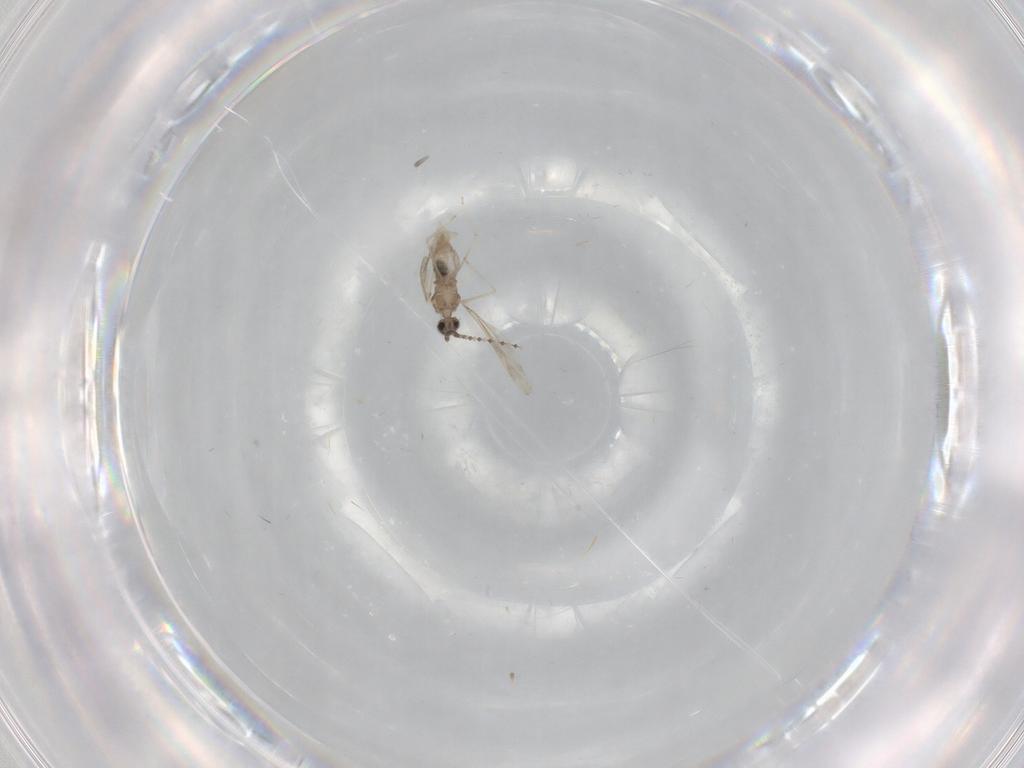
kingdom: Animalia
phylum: Arthropoda
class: Insecta
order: Diptera
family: Cecidomyiidae
